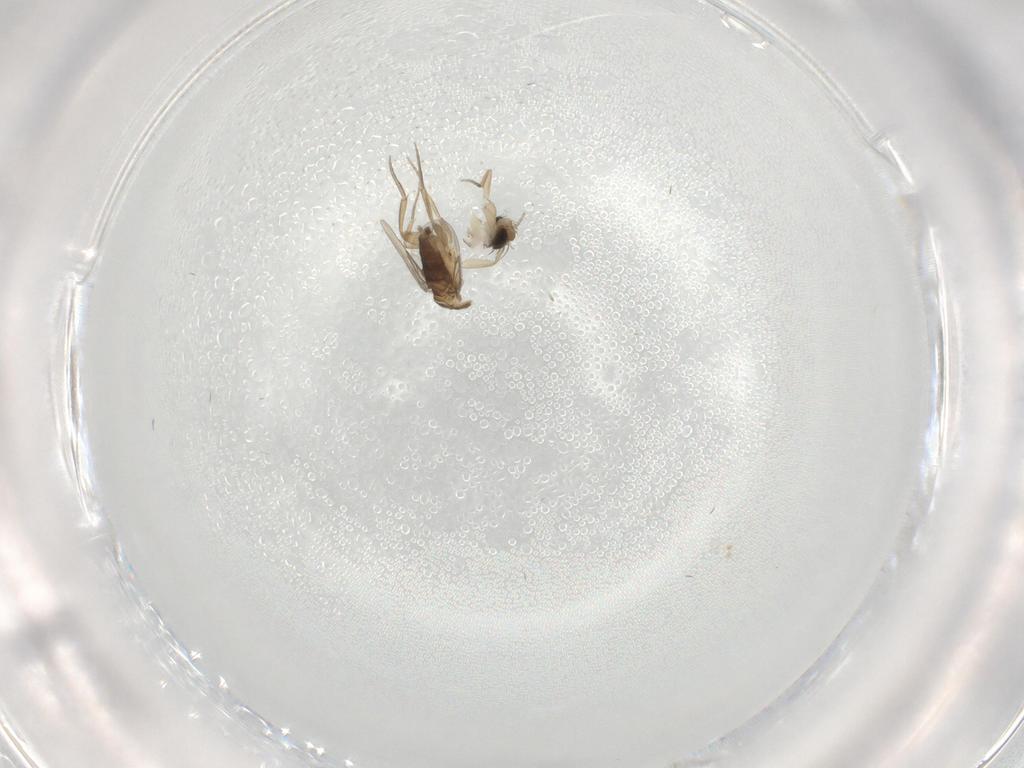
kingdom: Animalia
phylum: Arthropoda
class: Insecta
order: Diptera
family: Phoridae
